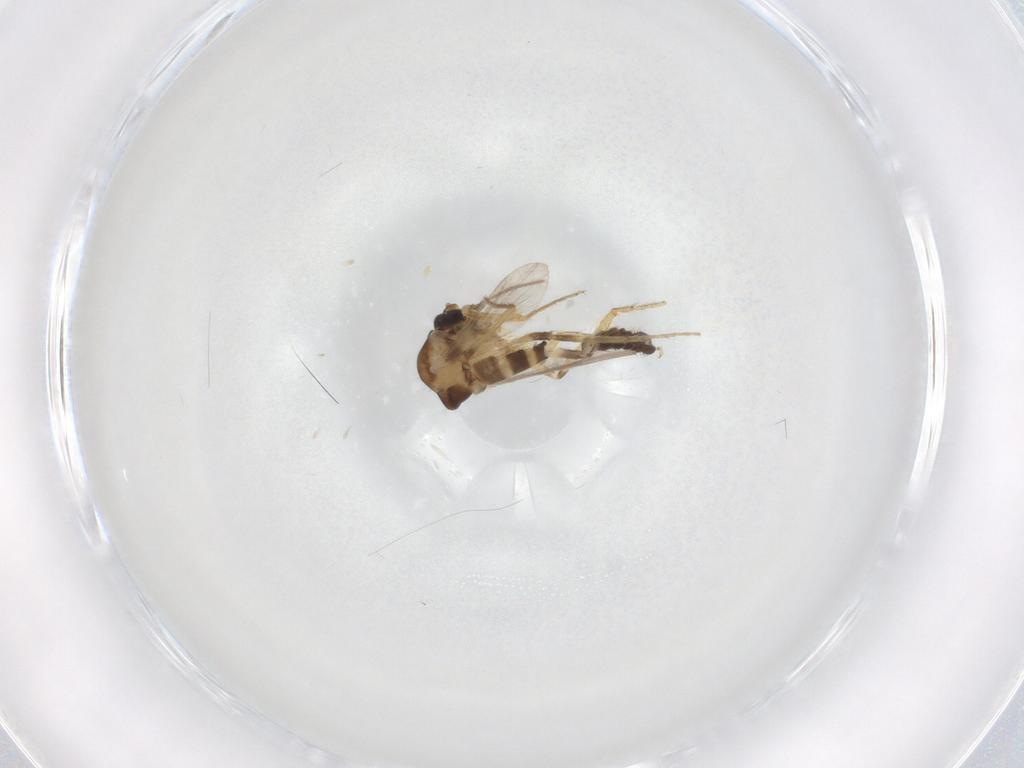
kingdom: Animalia
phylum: Arthropoda
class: Insecta
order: Diptera
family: Ceratopogonidae
